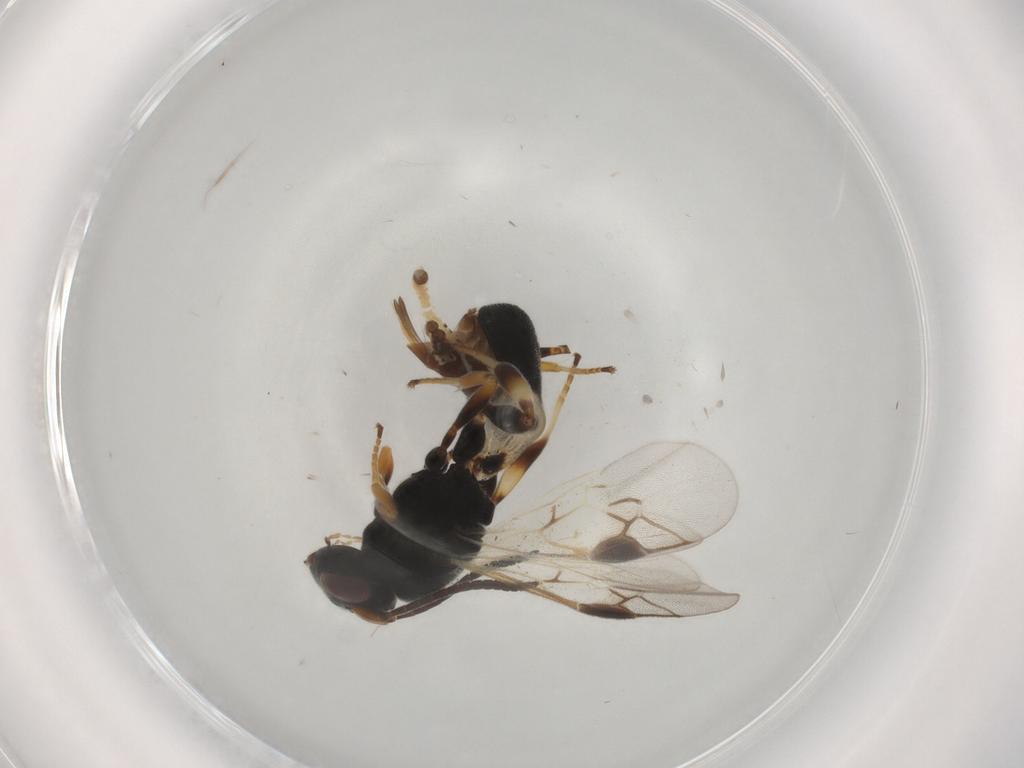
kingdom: Animalia
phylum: Arthropoda
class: Insecta
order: Hymenoptera
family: Braconidae
